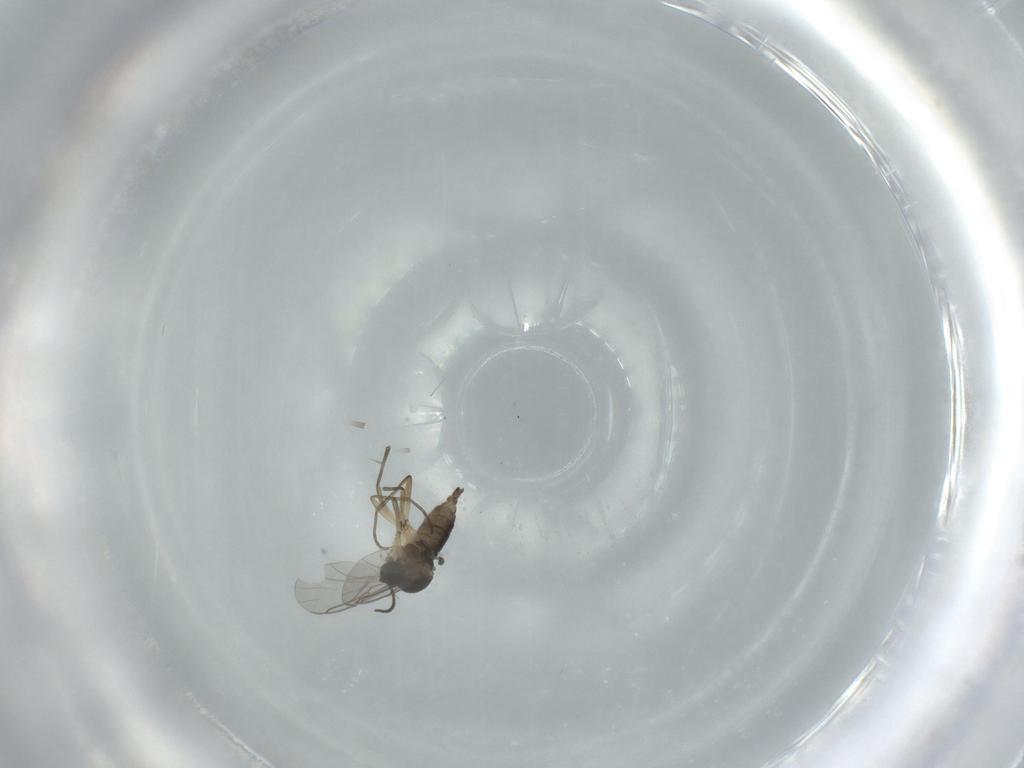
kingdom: Animalia
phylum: Arthropoda
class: Insecta
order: Diptera
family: Sciaridae
